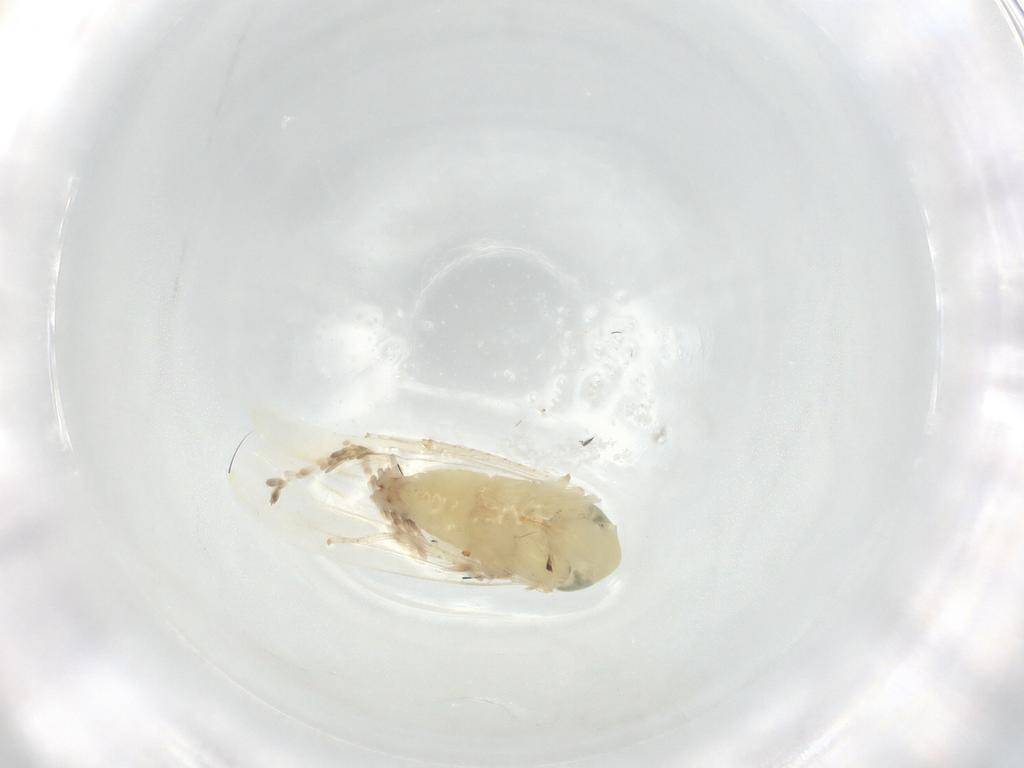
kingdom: Animalia
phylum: Arthropoda
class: Insecta
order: Hemiptera
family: Cicadellidae
